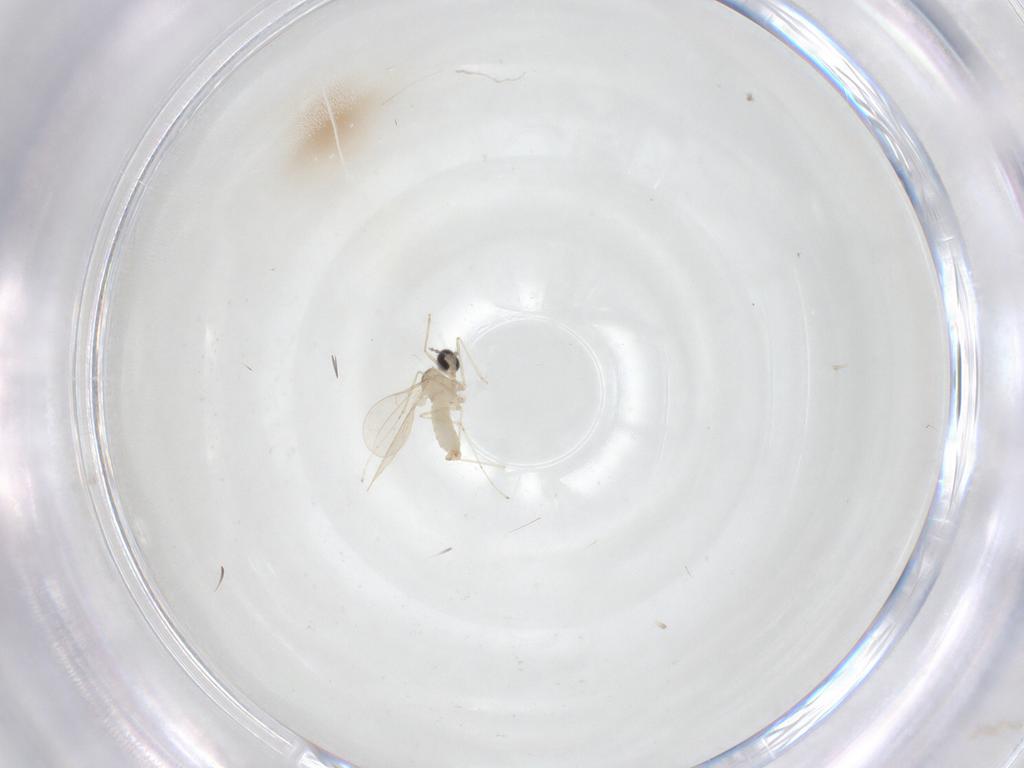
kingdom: Animalia
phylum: Arthropoda
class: Insecta
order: Diptera
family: Cecidomyiidae
